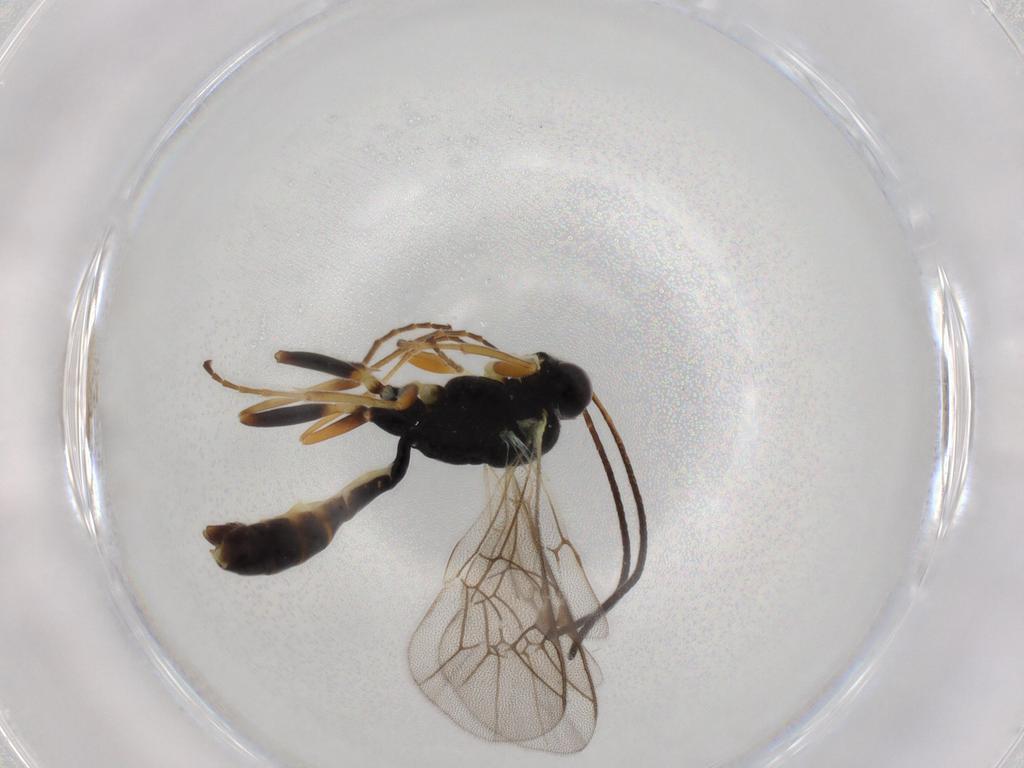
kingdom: Animalia
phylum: Arthropoda
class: Insecta
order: Hymenoptera
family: Ichneumonidae
